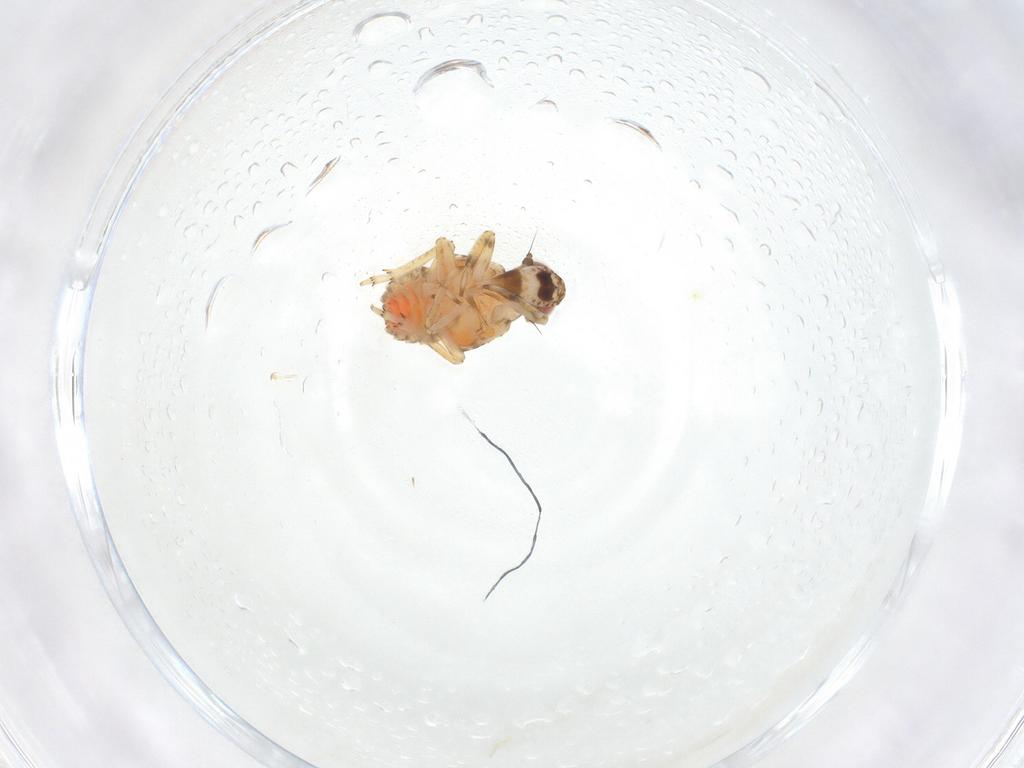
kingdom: Animalia
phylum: Arthropoda
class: Insecta
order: Hemiptera
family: Issidae
